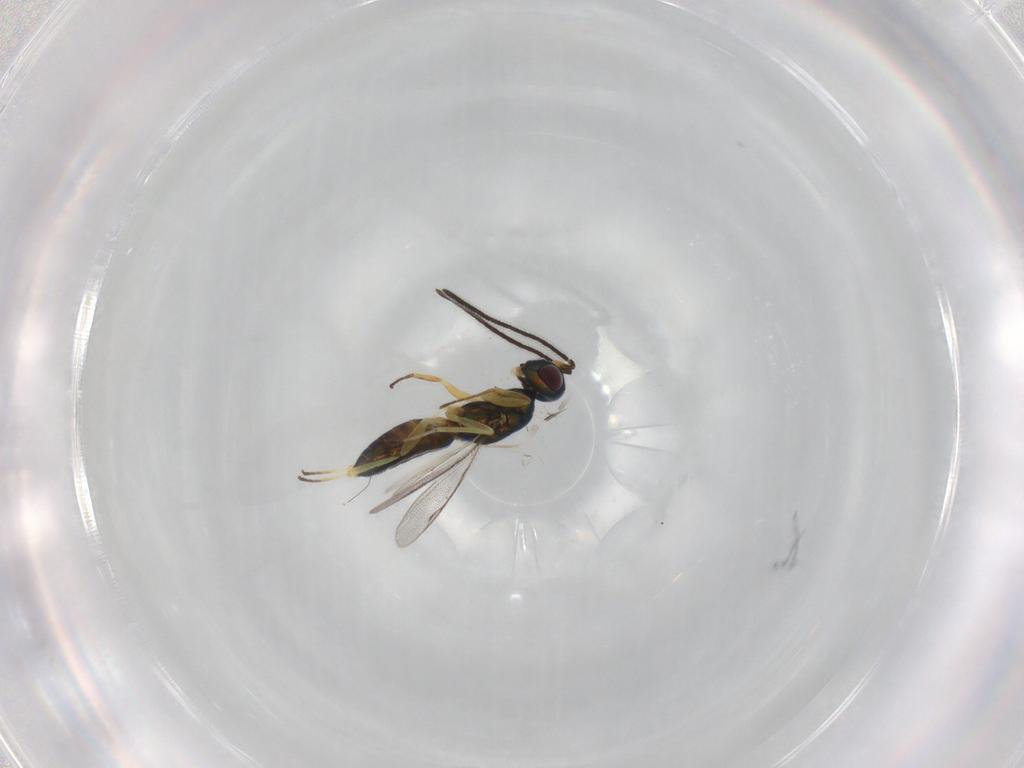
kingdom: Animalia
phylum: Arthropoda
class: Insecta
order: Hymenoptera
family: Eupelmidae
